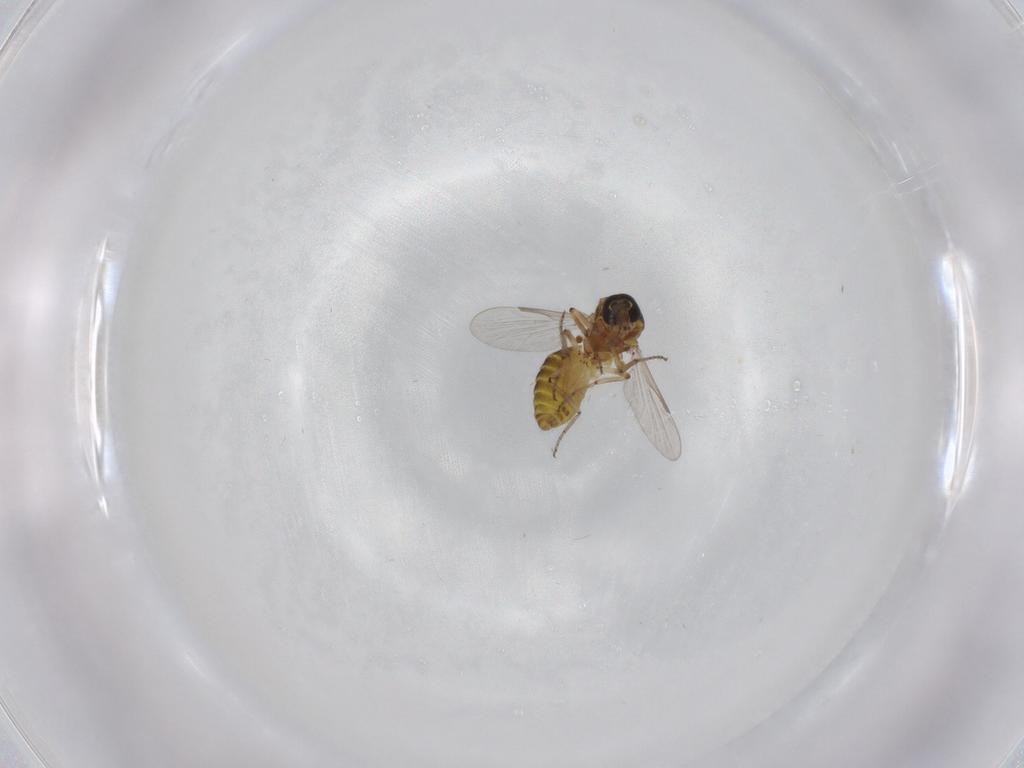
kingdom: Animalia
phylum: Arthropoda
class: Insecta
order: Diptera
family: Ceratopogonidae
